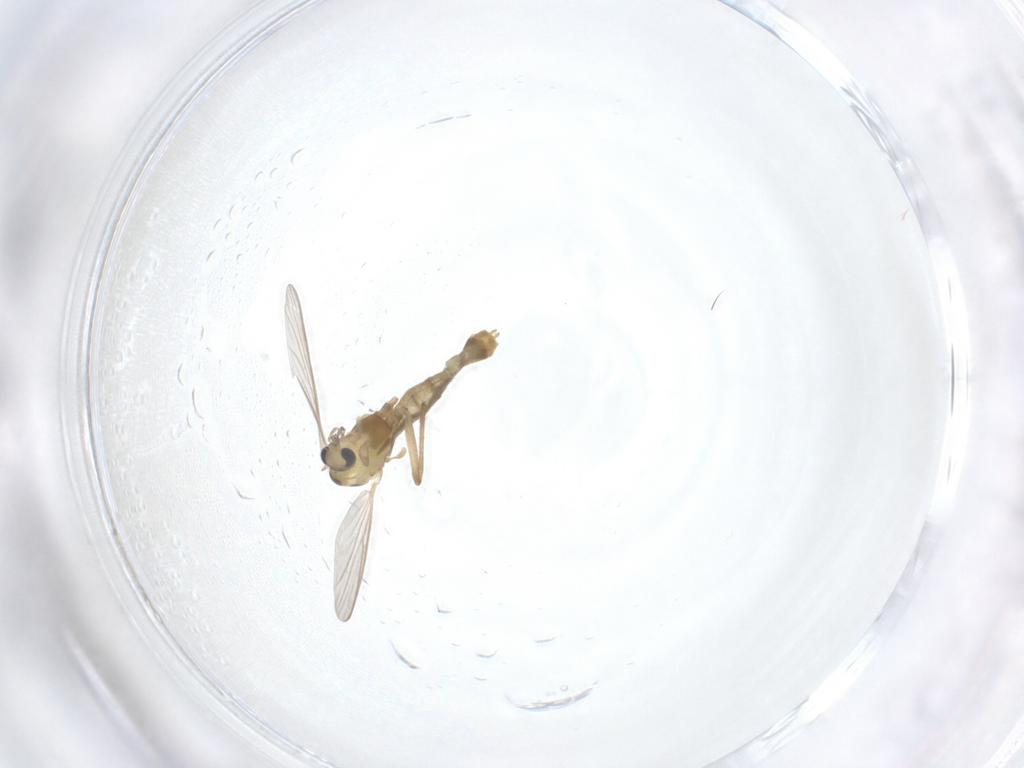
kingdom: Animalia
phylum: Arthropoda
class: Insecta
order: Diptera
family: Chironomidae
